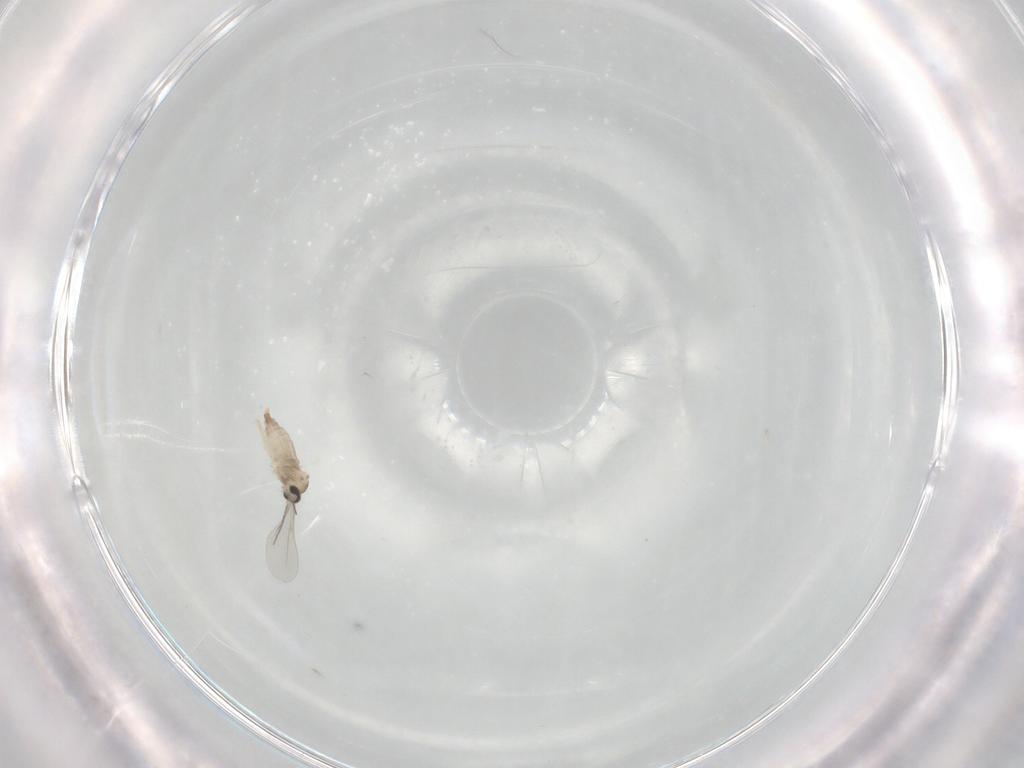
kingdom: Animalia
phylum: Arthropoda
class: Insecta
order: Diptera
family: Cecidomyiidae
